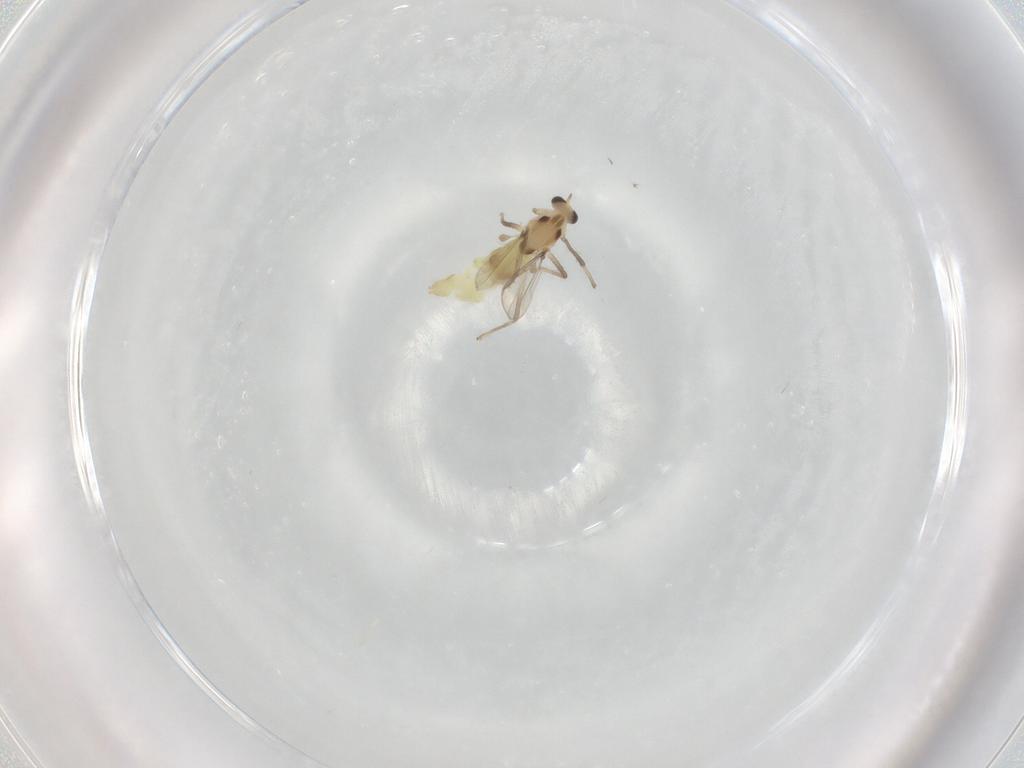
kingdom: Animalia
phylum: Arthropoda
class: Insecta
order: Diptera
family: Chironomidae
